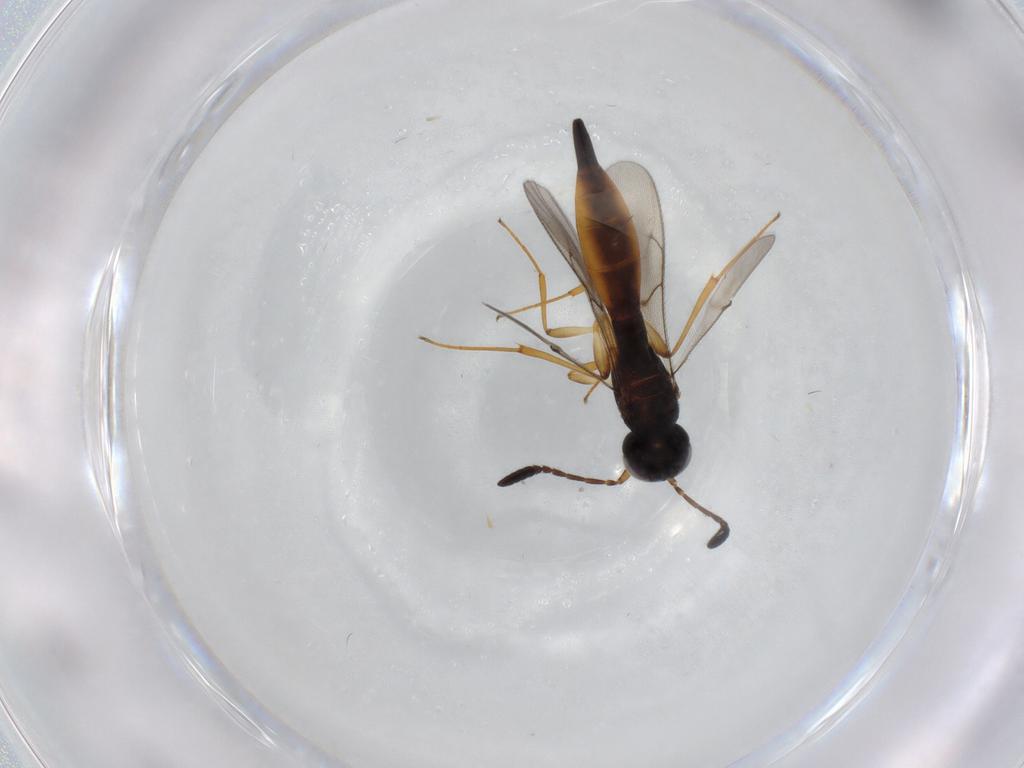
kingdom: Animalia
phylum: Arthropoda
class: Insecta
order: Hymenoptera
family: Scelionidae
